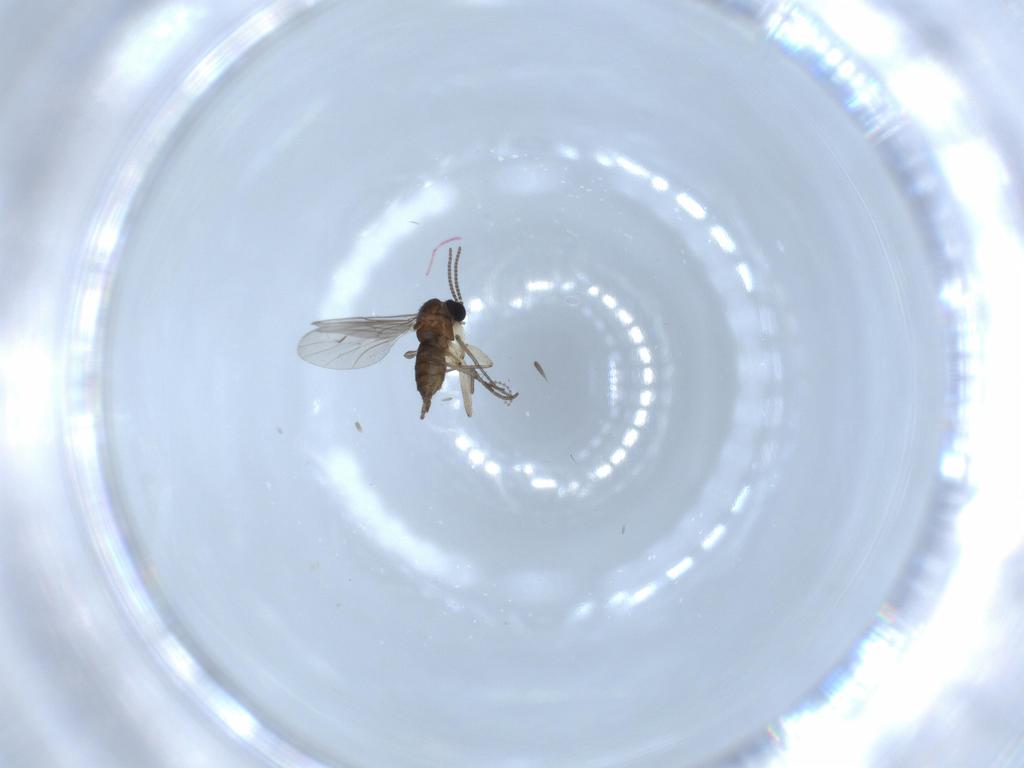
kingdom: Animalia
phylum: Arthropoda
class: Insecta
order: Diptera
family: Sciaridae
